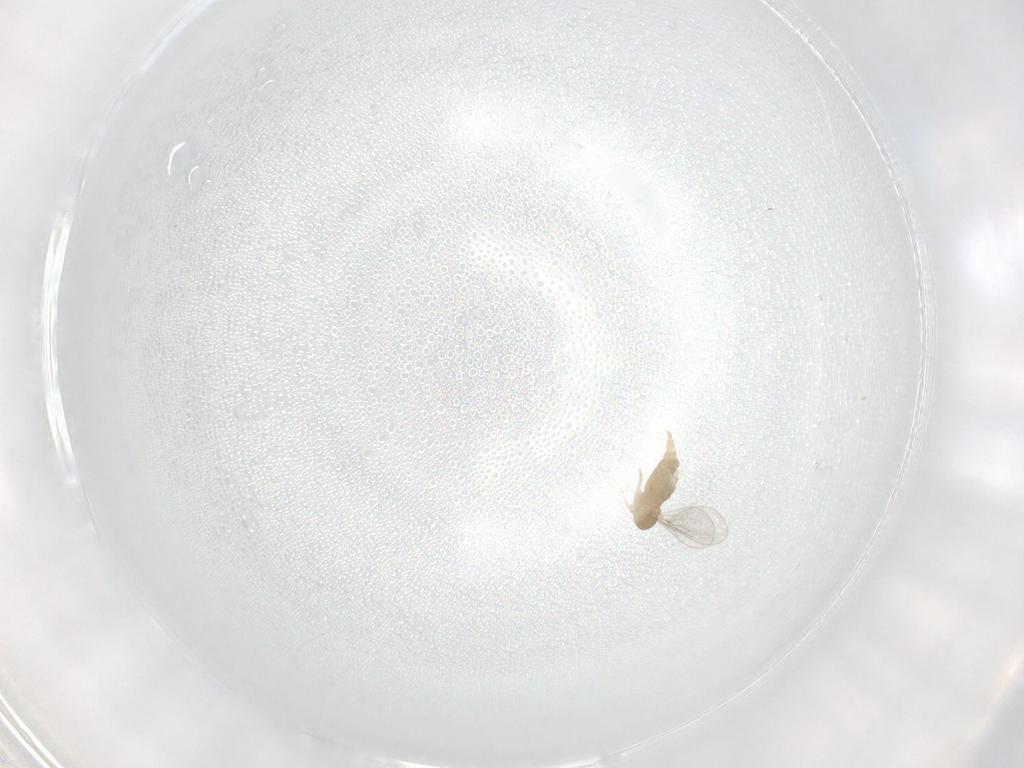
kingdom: Animalia
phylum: Arthropoda
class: Insecta
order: Diptera
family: Cecidomyiidae
